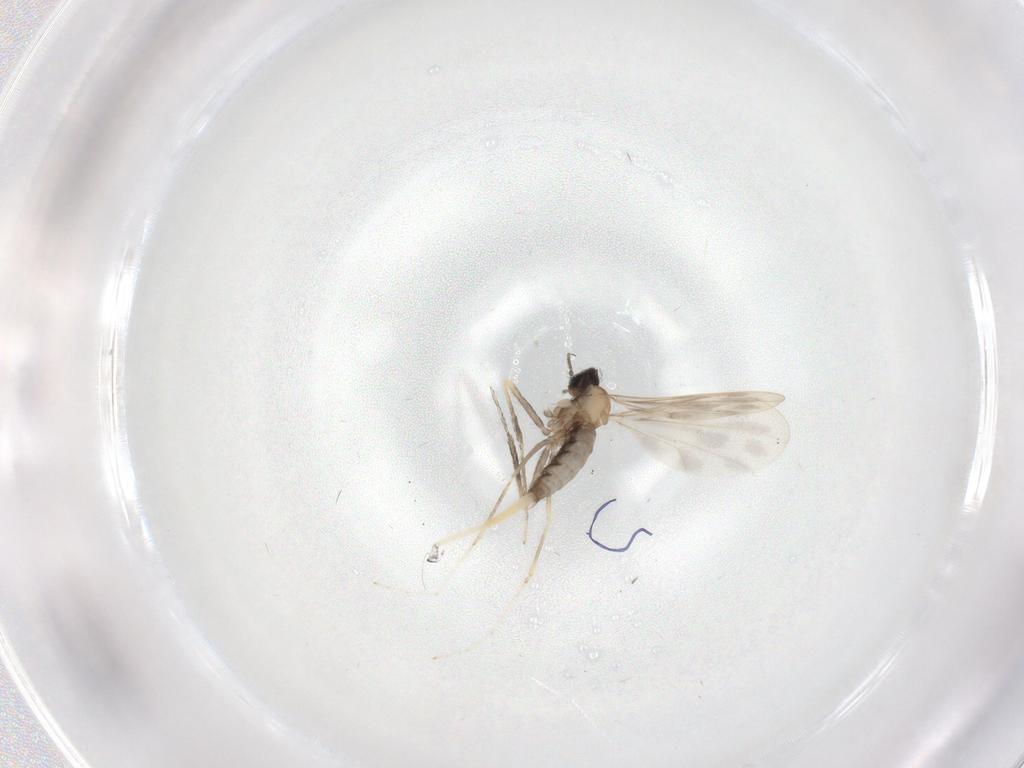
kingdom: Animalia
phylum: Arthropoda
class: Insecta
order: Diptera
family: Cecidomyiidae
